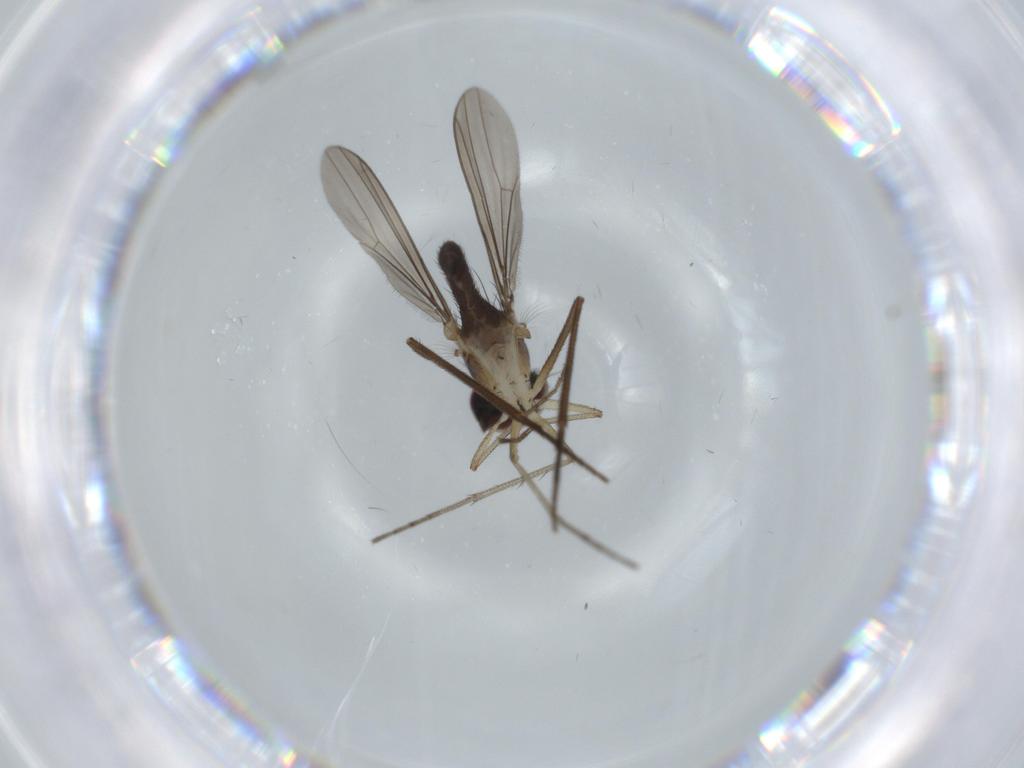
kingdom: Animalia
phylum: Arthropoda
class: Insecta
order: Diptera
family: Dolichopodidae
